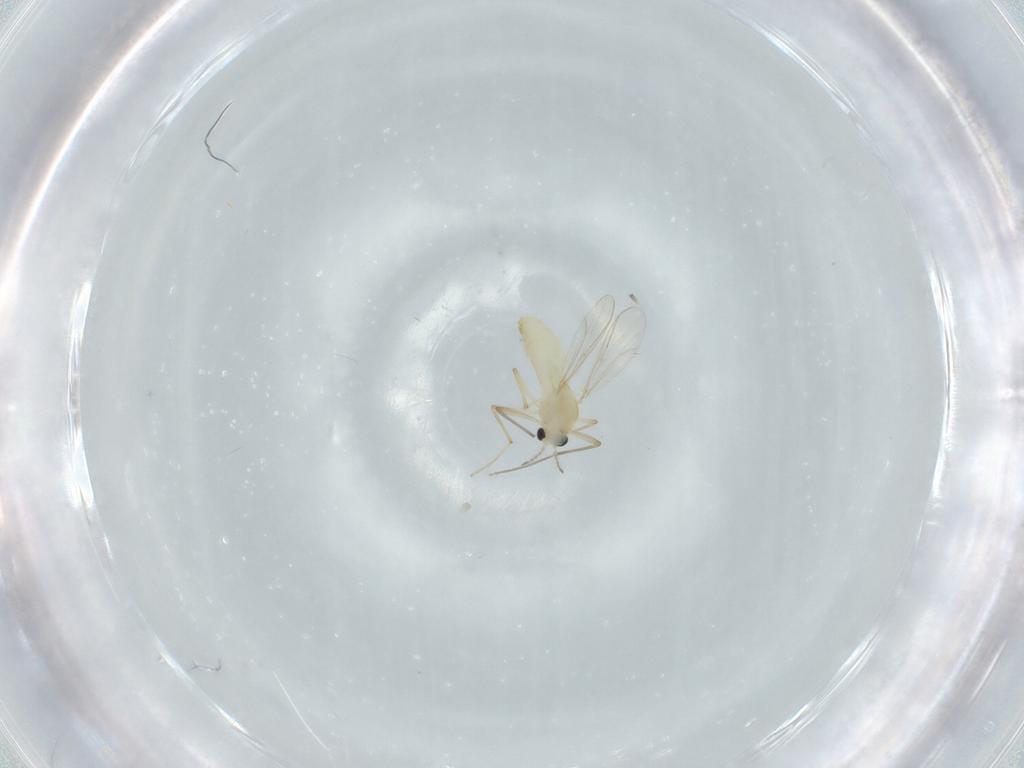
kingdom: Animalia
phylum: Arthropoda
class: Insecta
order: Diptera
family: Chironomidae
